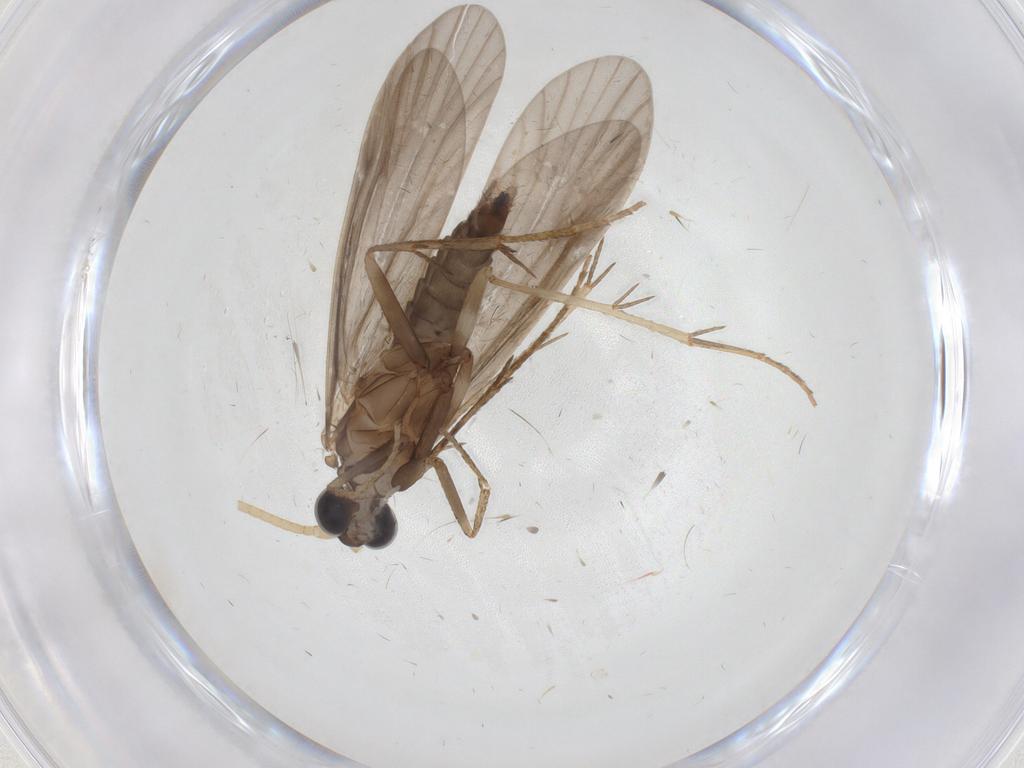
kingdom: Animalia
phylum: Arthropoda
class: Insecta
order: Trichoptera
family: Ecnomidae
